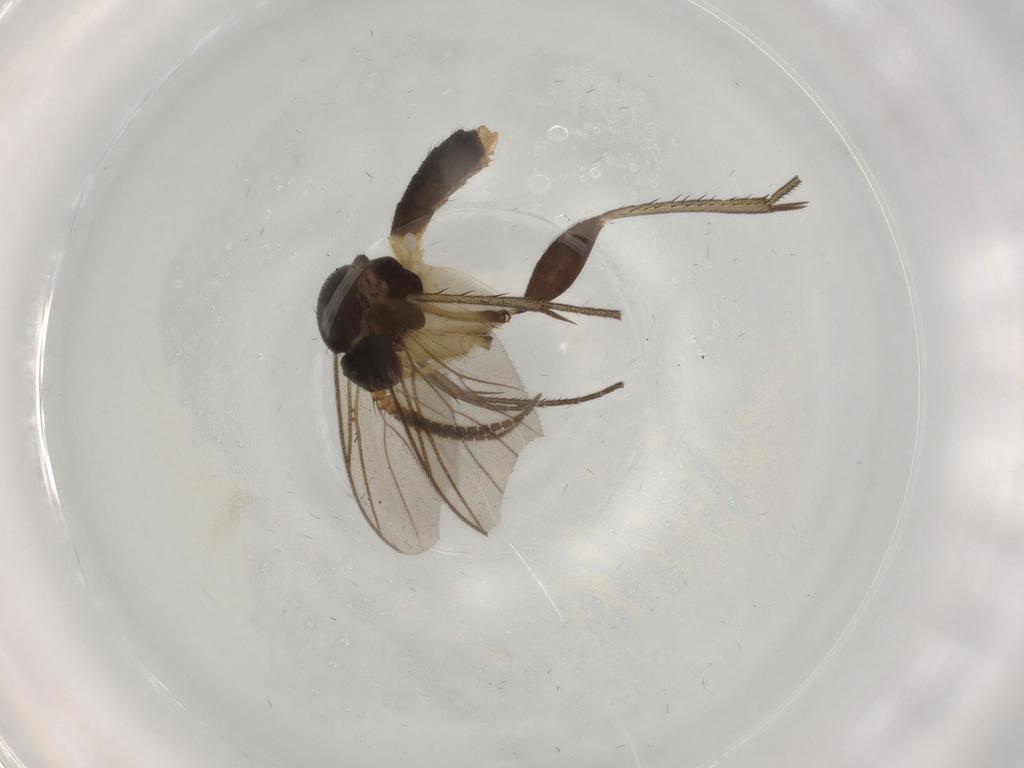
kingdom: Animalia
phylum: Arthropoda
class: Insecta
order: Diptera
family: Mycetophilidae
